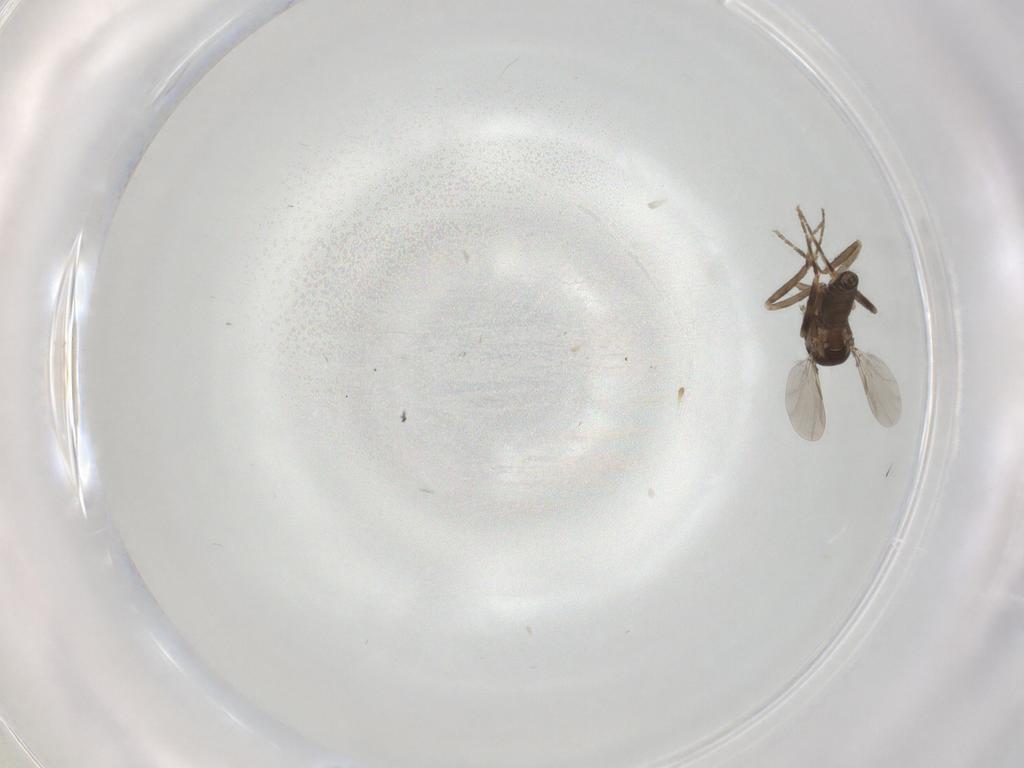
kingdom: Animalia
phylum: Arthropoda
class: Insecta
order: Diptera
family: Ceratopogonidae
